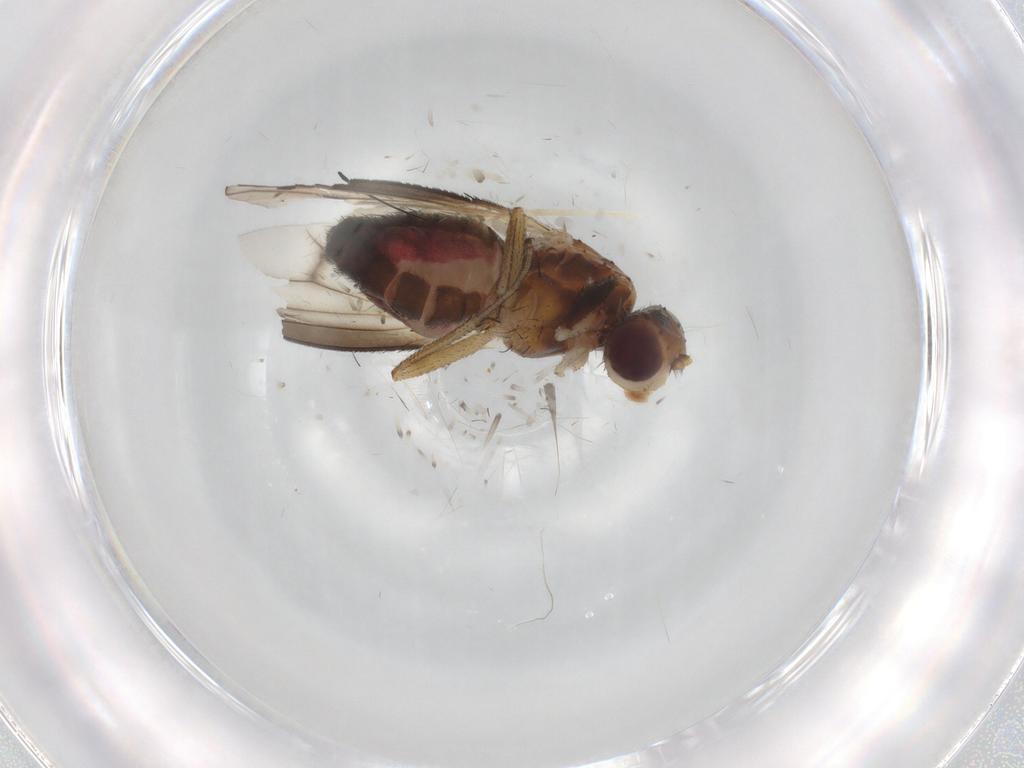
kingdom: Animalia
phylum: Arthropoda
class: Insecta
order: Diptera
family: Heleomyzidae
